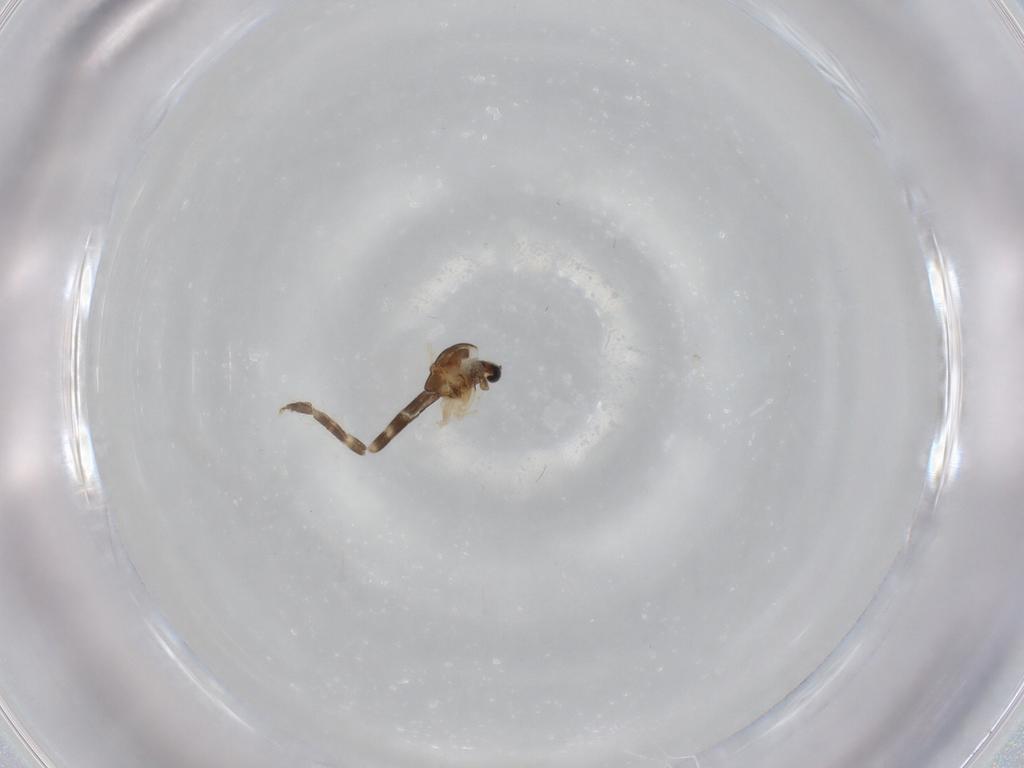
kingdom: Animalia
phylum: Arthropoda
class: Insecta
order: Diptera
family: Chironomidae
